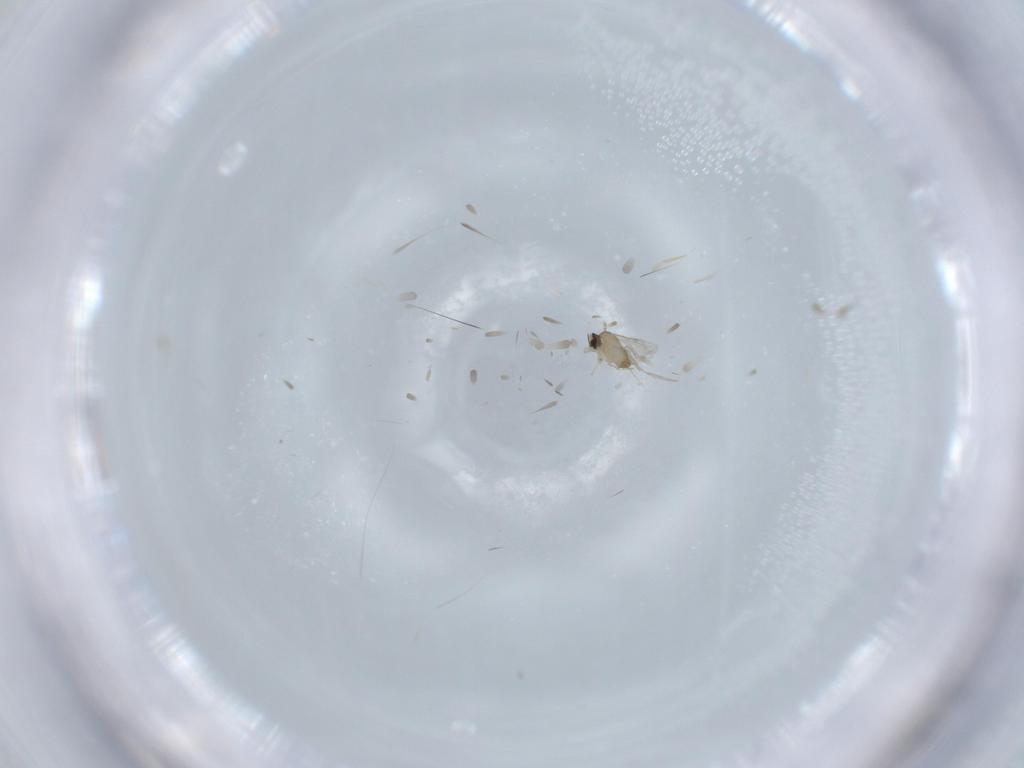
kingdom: Animalia
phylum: Arthropoda
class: Insecta
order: Diptera
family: Cecidomyiidae
